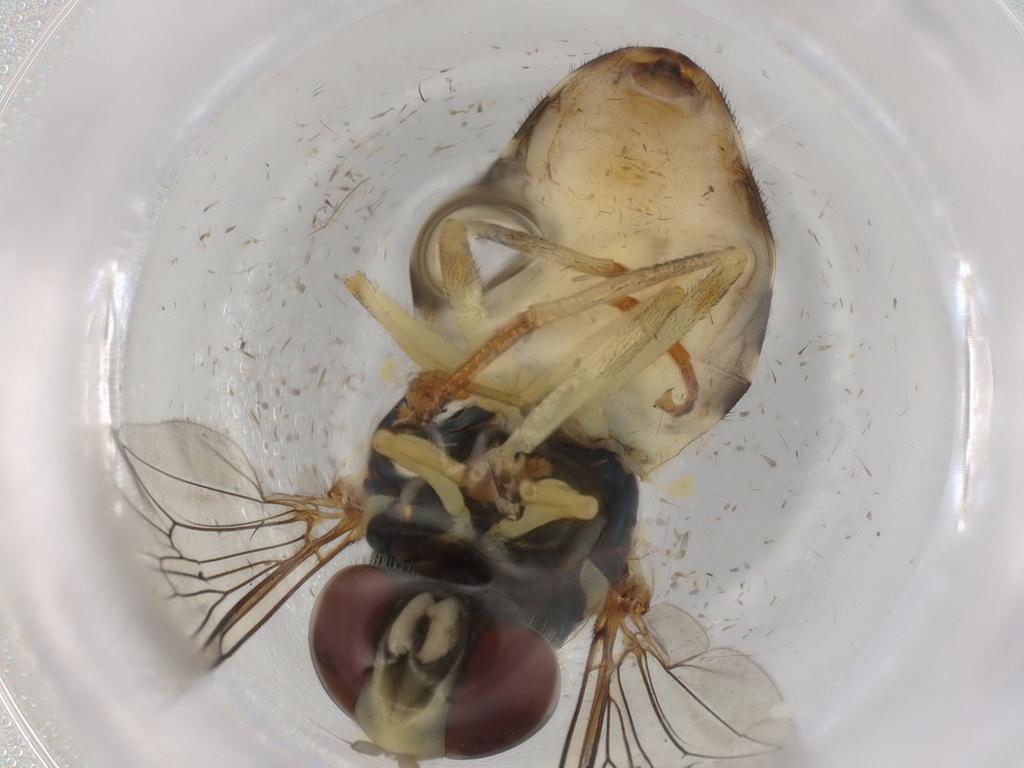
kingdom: Animalia
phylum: Arthropoda
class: Insecta
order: Diptera
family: Syrphidae
